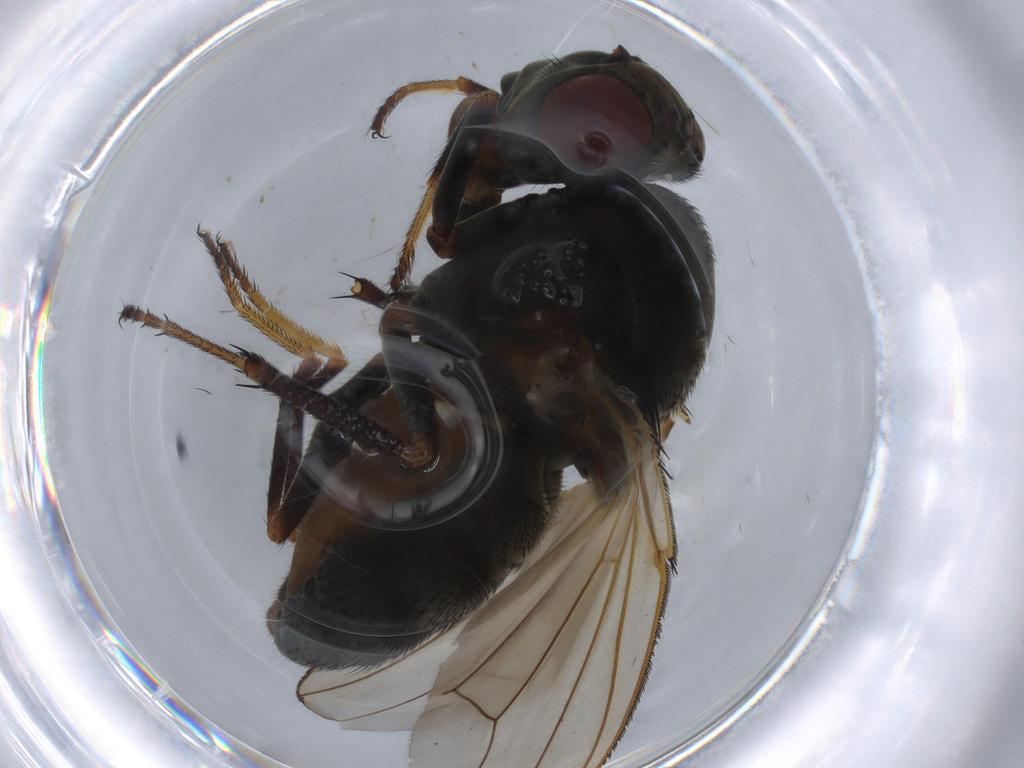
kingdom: Animalia
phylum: Arthropoda
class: Insecta
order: Diptera
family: Ephydridae
